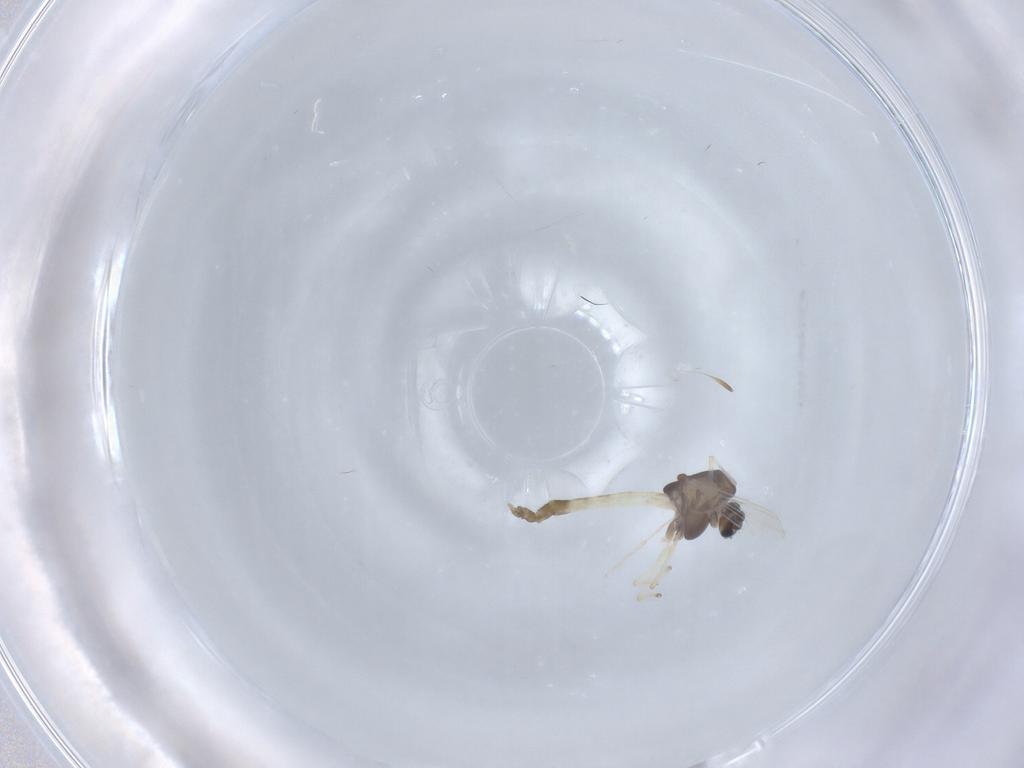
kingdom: Animalia
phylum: Arthropoda
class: Insecta
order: Diptera
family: Chironomidae
